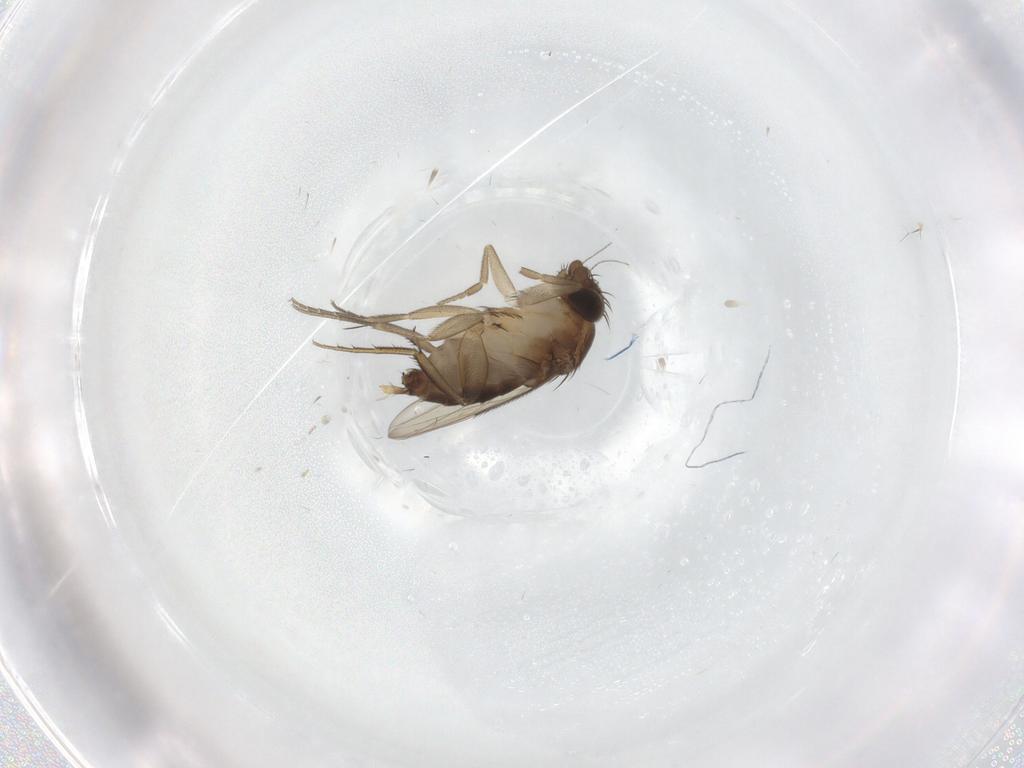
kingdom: Animalia
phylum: Arthropoda
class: Insecta
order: Diptera
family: Phoridae
